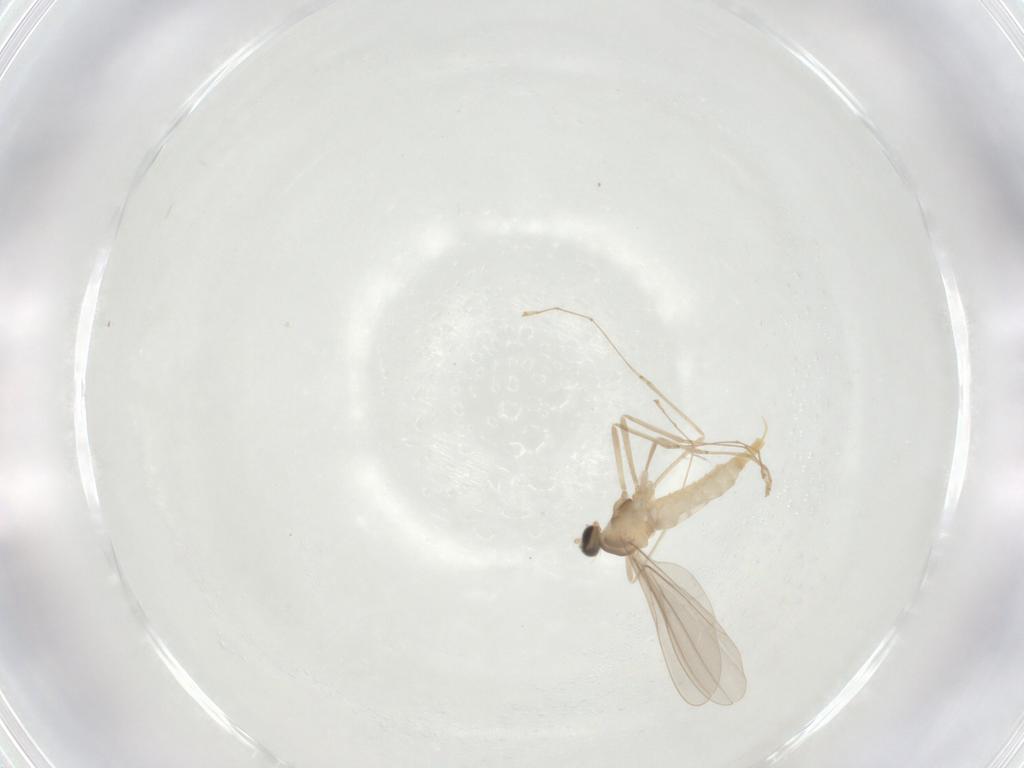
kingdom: Animalia
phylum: Arthropoda
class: Insecta
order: Diptera
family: Cecidomyiidae
